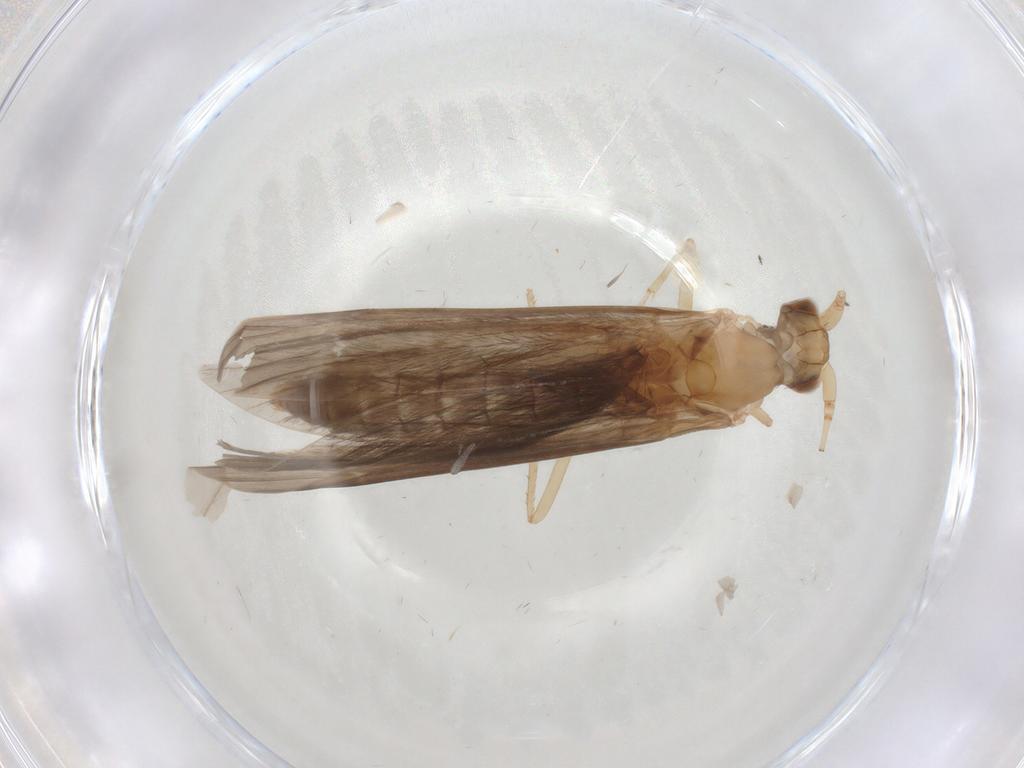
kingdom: Animalia
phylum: Arthropoda
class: Insecta
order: Trichoptera
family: Leptoceridae
